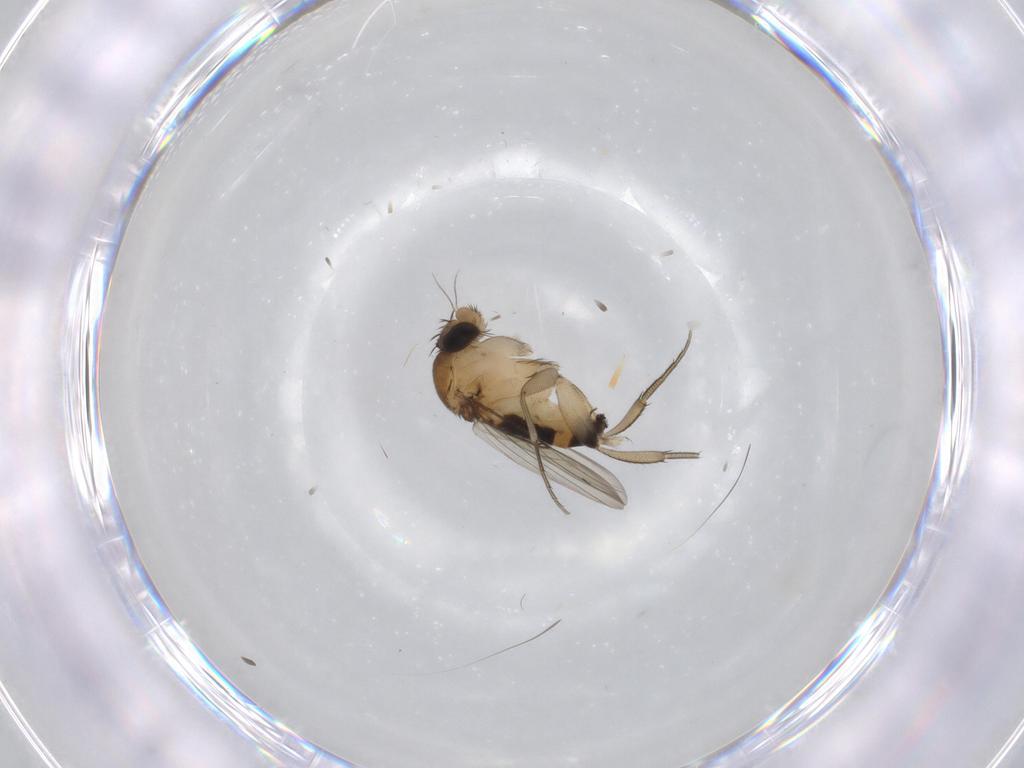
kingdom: Animalia
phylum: Arthropoda
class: Insecta
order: Diptera
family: Phoridae
